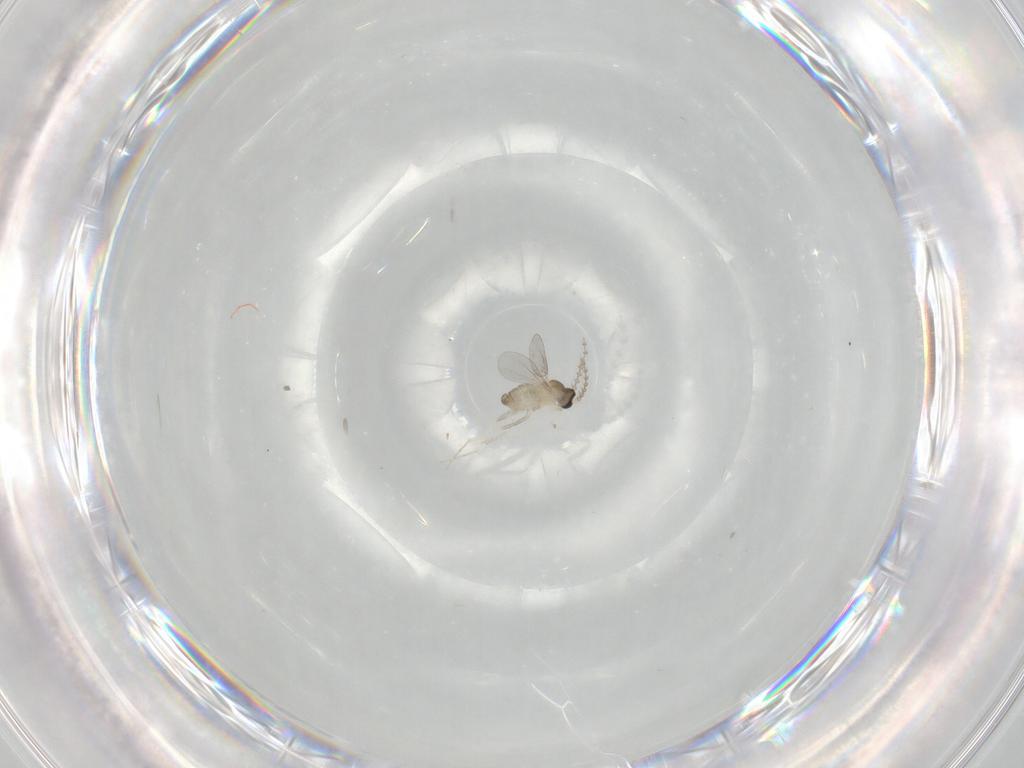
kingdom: Animalia
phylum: Arthropoda
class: Insecta
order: Diptera
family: Cecidomyiidae
